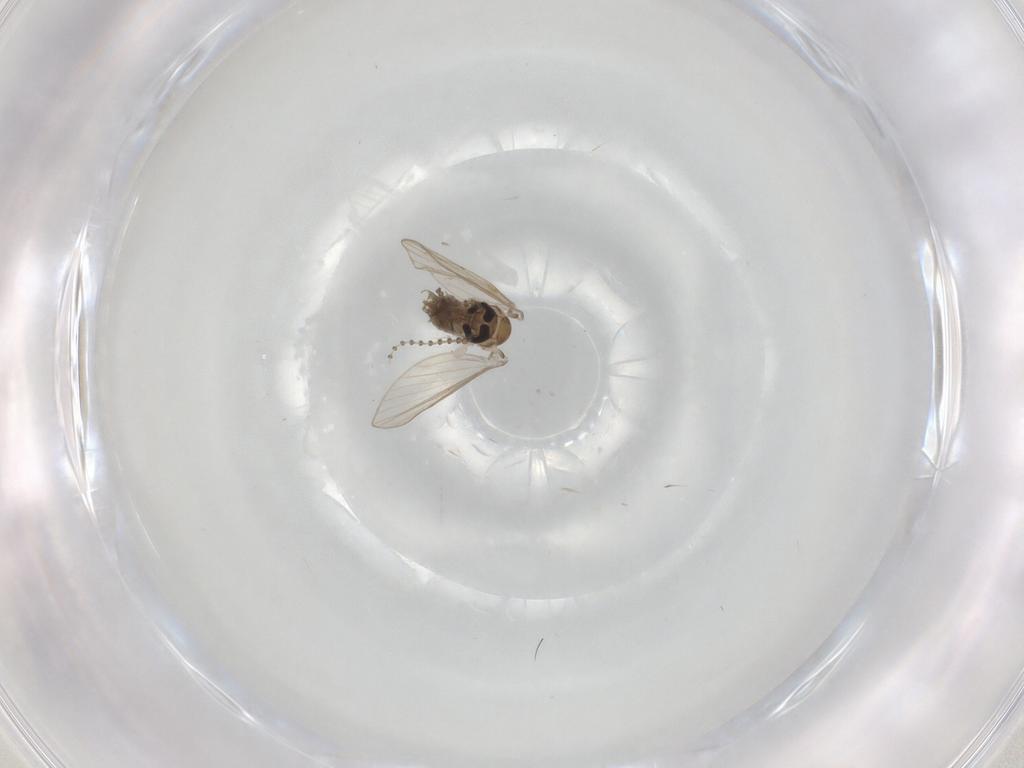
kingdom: Animalia
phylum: Arthropoda
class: Insecta
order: Diptera
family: Psychodidae
